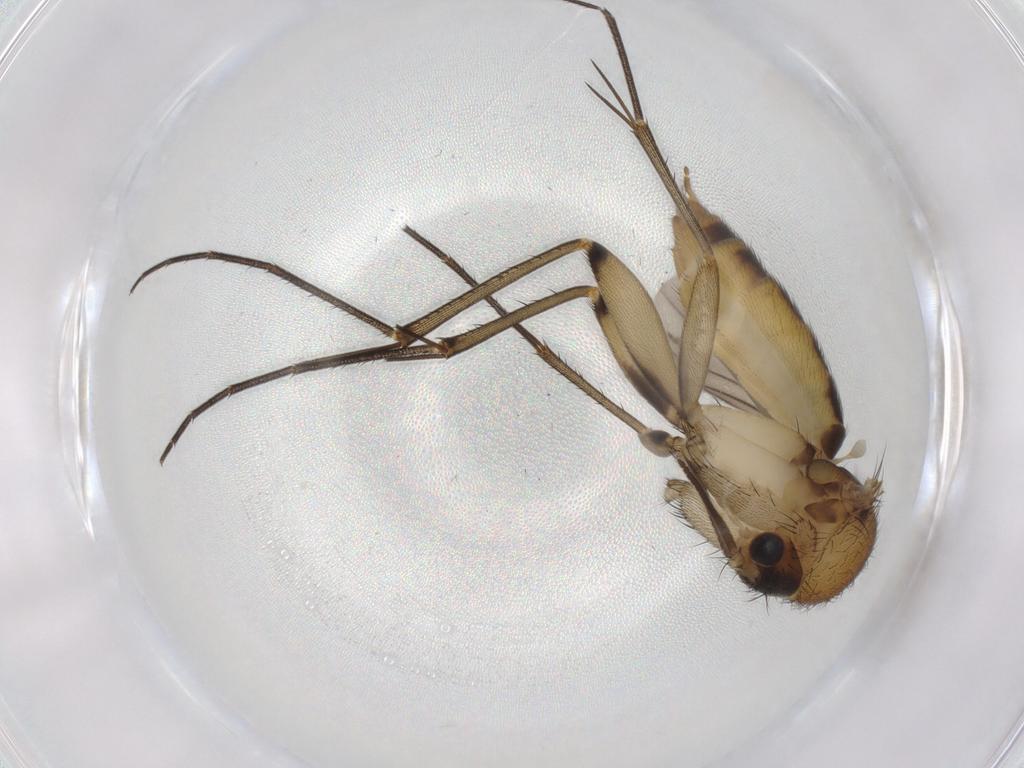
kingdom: Animalia
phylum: Arthropoda
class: Insecta
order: Diptera
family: Mycetophilidae
